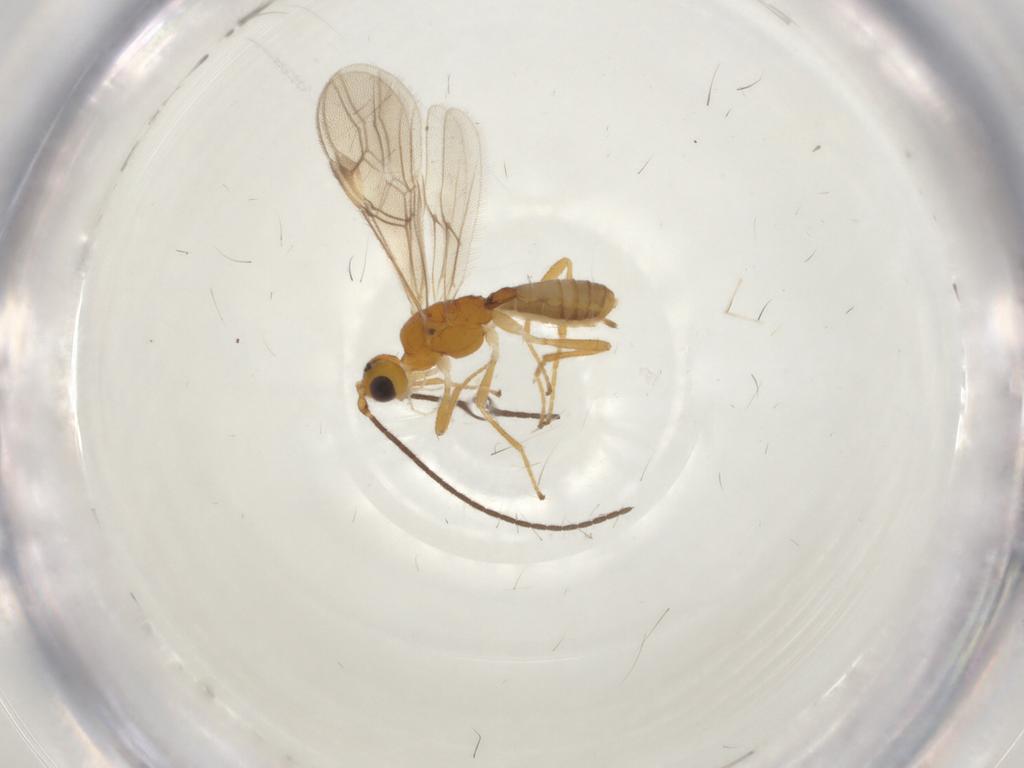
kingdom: Animalia
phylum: Arthropoda
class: Insecta
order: Hymenoptera
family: Braconidae
